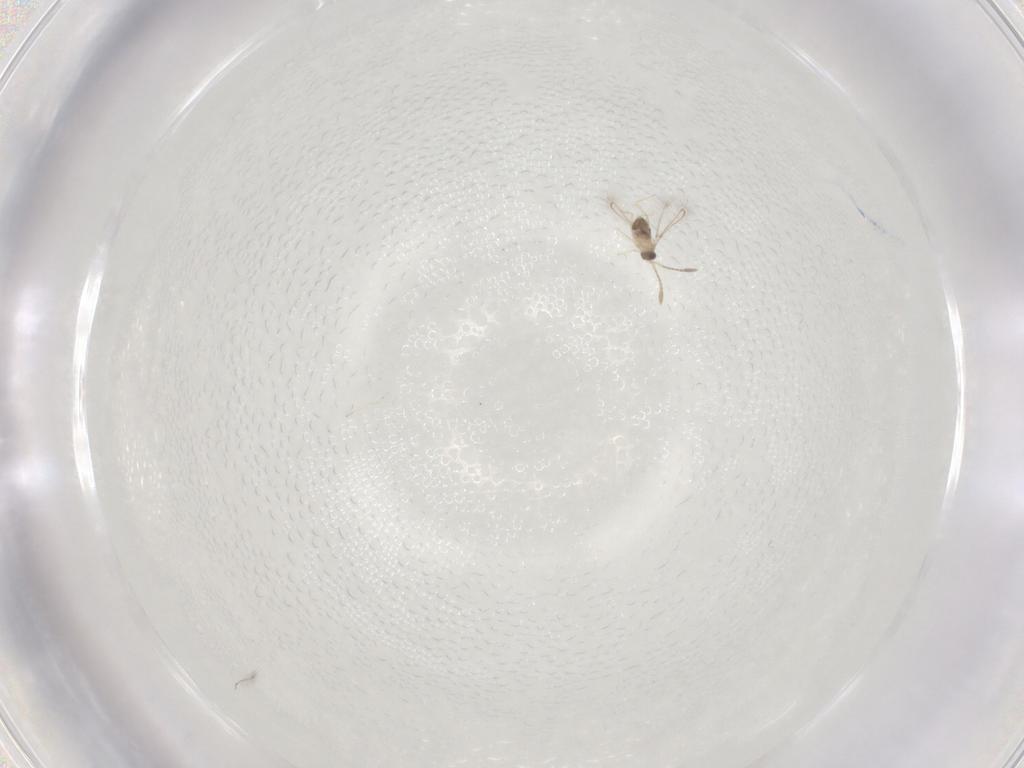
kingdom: Animalia
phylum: Arthropoda
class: Insecta
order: Hymenoptera
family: Mymaridae
